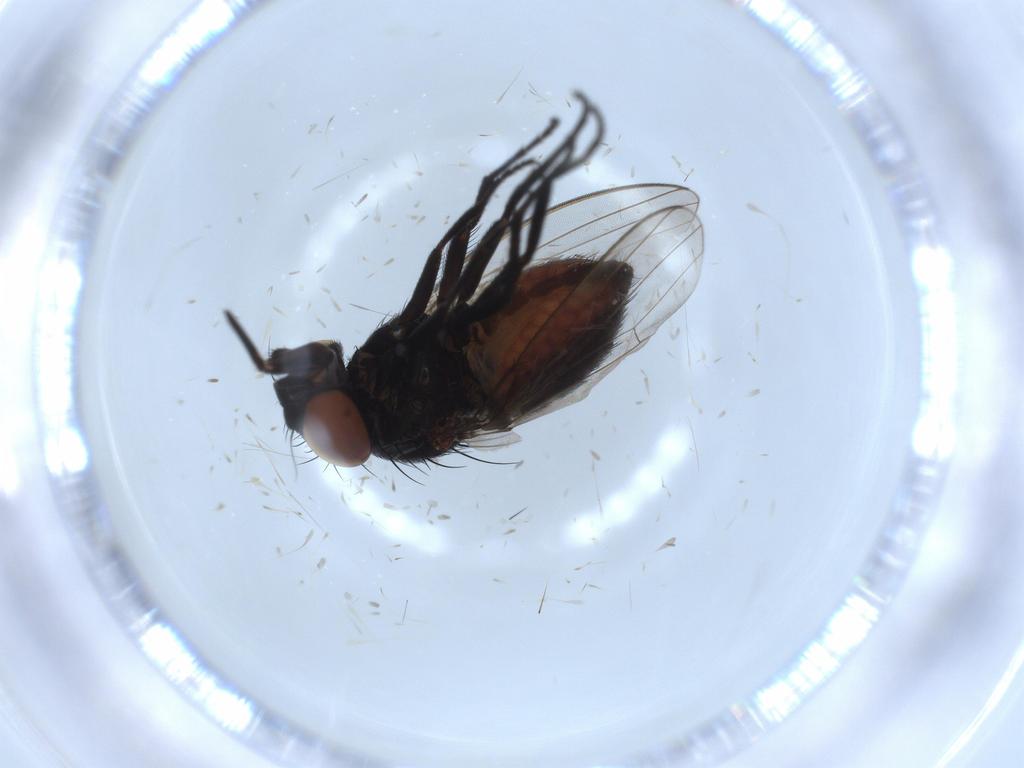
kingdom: Animalia
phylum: Arthropoda
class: Insecta
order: Diptera
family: Milichiidae
